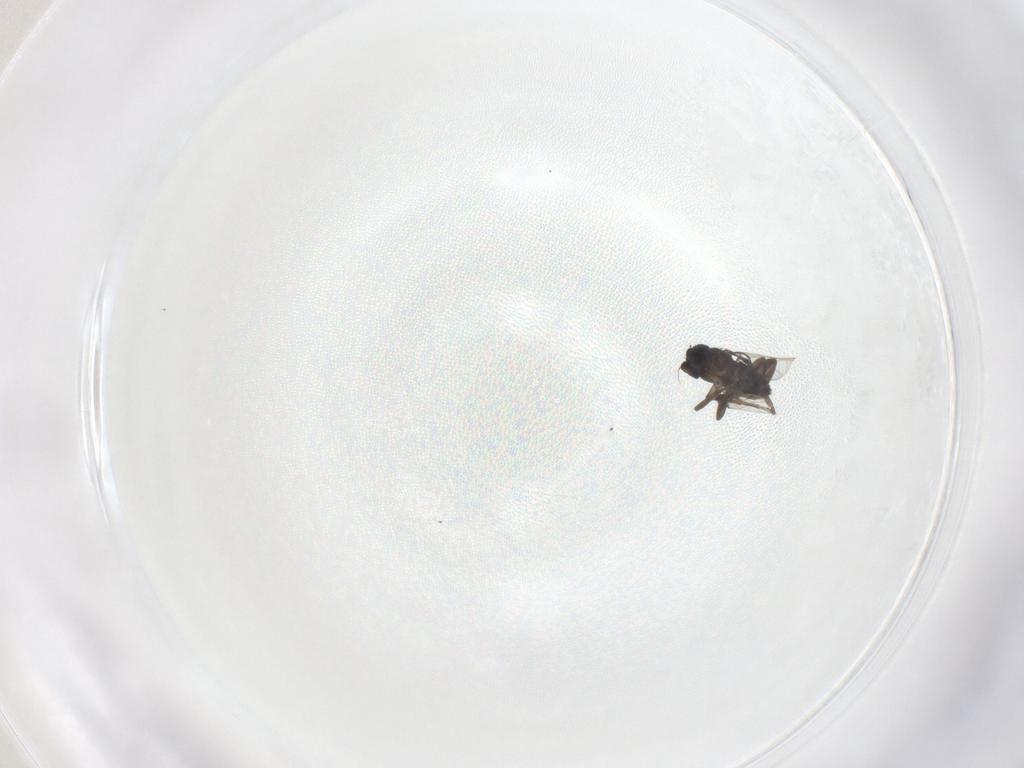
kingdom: Animalia
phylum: Arthropoda
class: Insecta
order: Diptera
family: Phoridae
